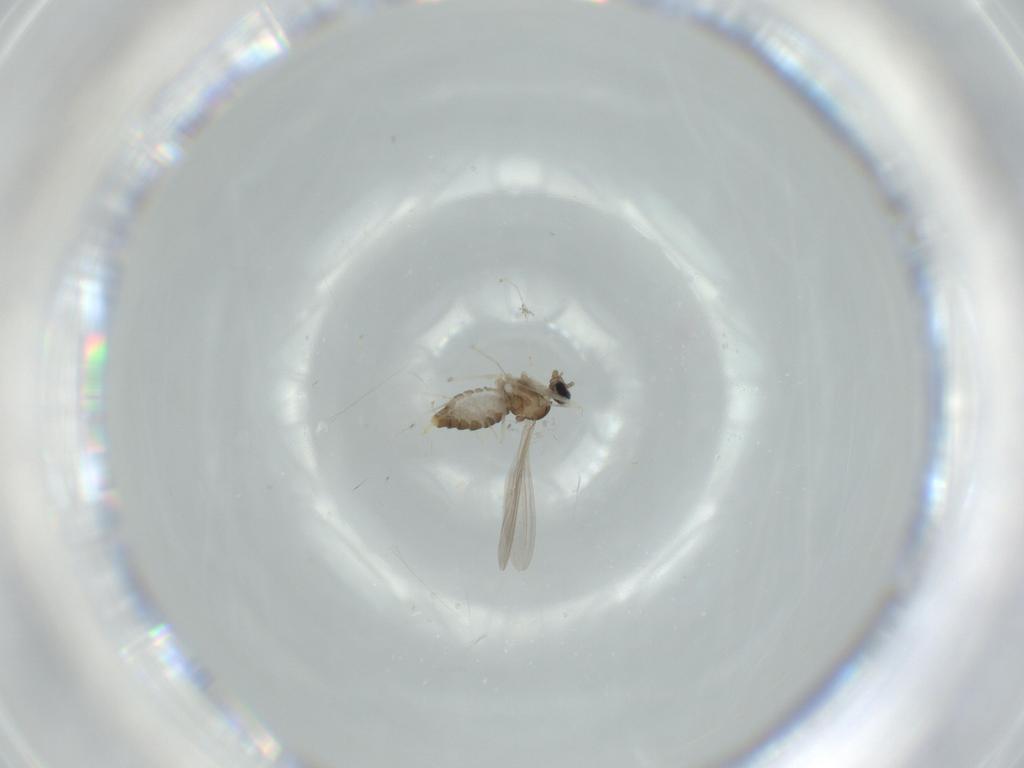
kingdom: Animalia
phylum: Arthropoda
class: Insecta
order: Diptera
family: Cecidomyiidae
